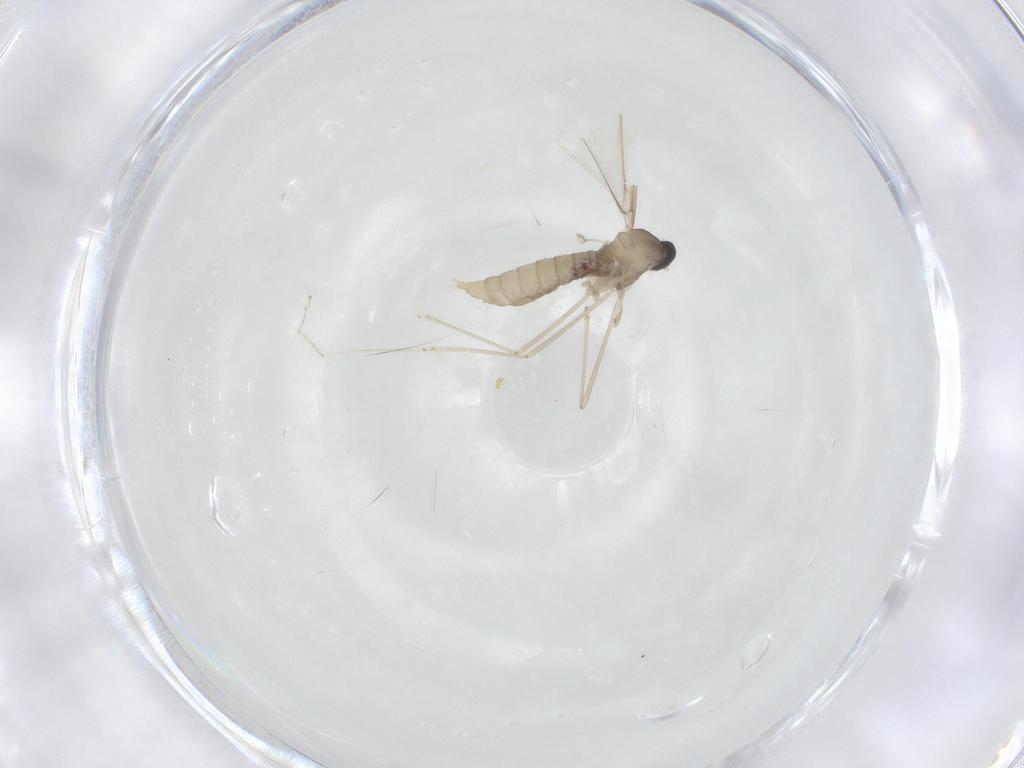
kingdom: Animalia
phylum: Arthropoda
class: Insecta
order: Diptera
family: Cecidomyiidae
